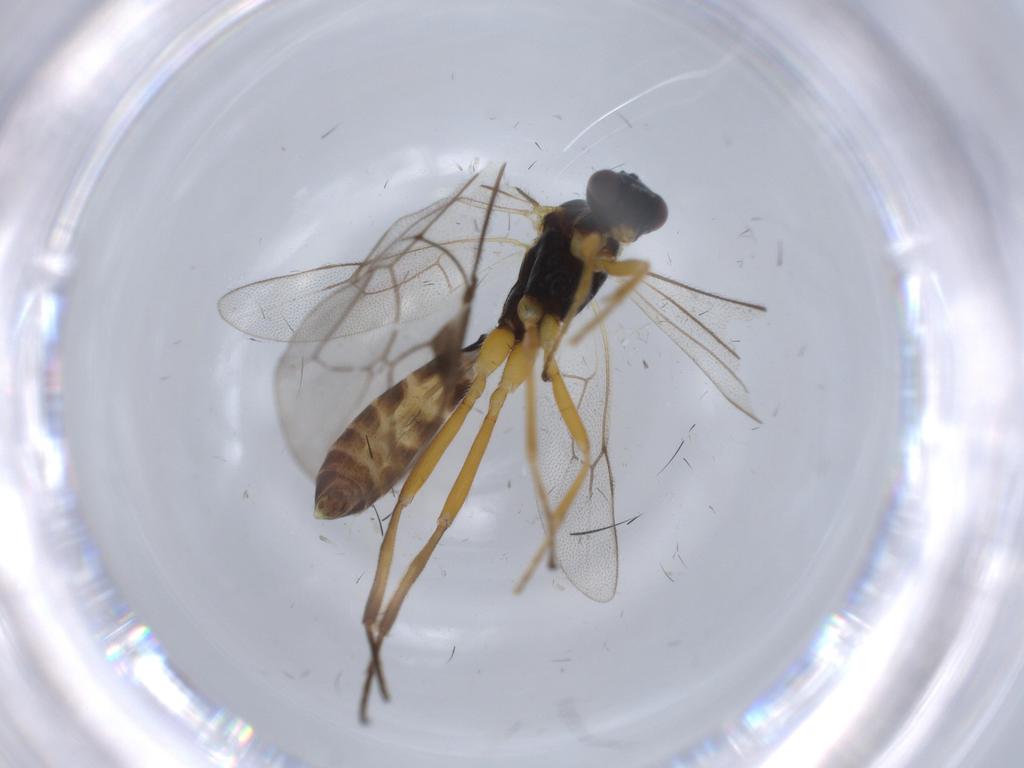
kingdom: Animalia
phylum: Arthropoda
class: Insecta
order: Hymenoptera
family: Ichneumonidae
